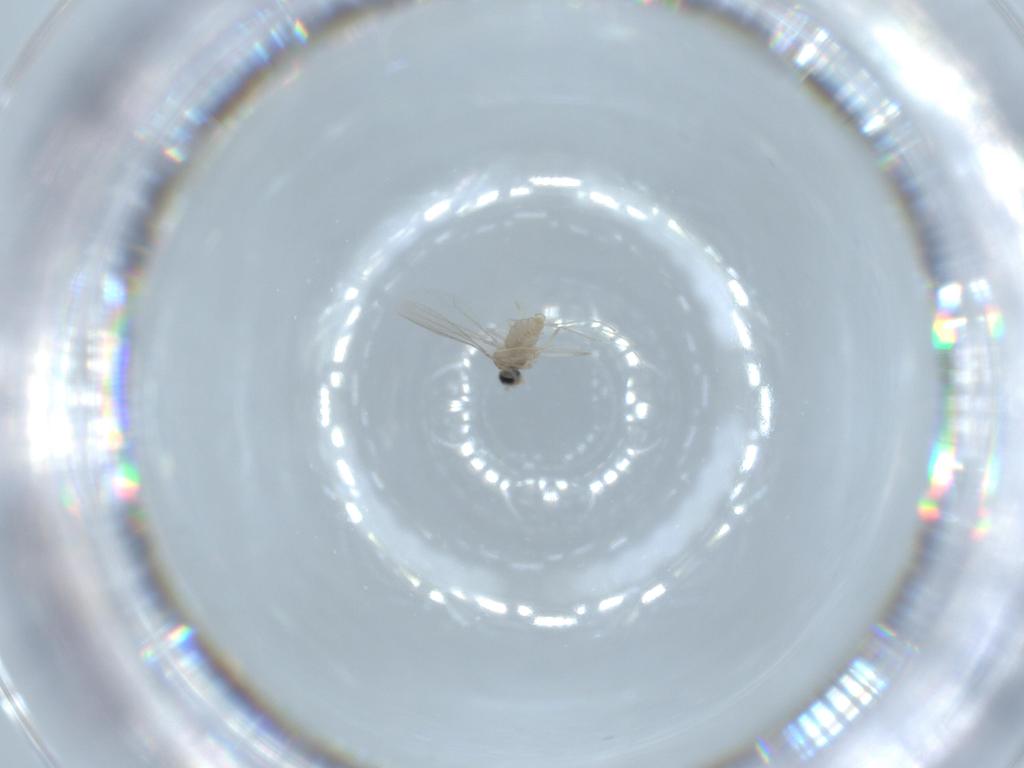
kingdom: Animalia
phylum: Arthropoda
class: Insecta
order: Diptera
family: Cecidomyiidae
